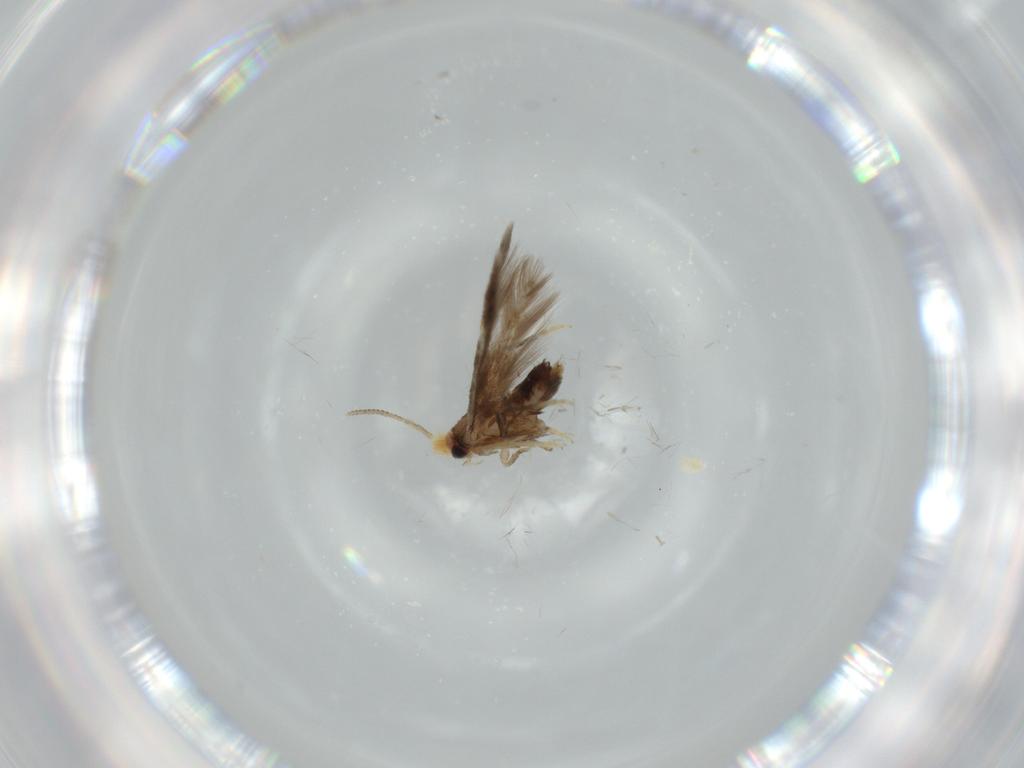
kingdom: Animalia
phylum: Arthropoda
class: Insecta
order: Lepidoptera
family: Nepticulidae
